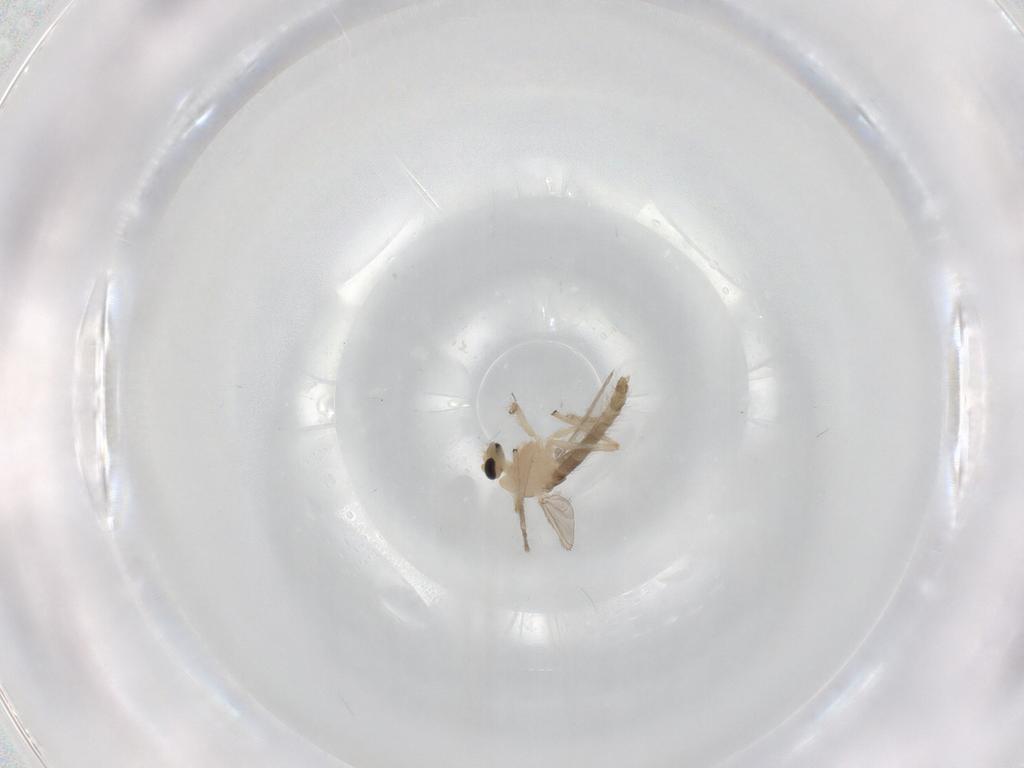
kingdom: Animalia
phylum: Arthropoda
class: Insecta
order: Diptera
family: Chironomidae
